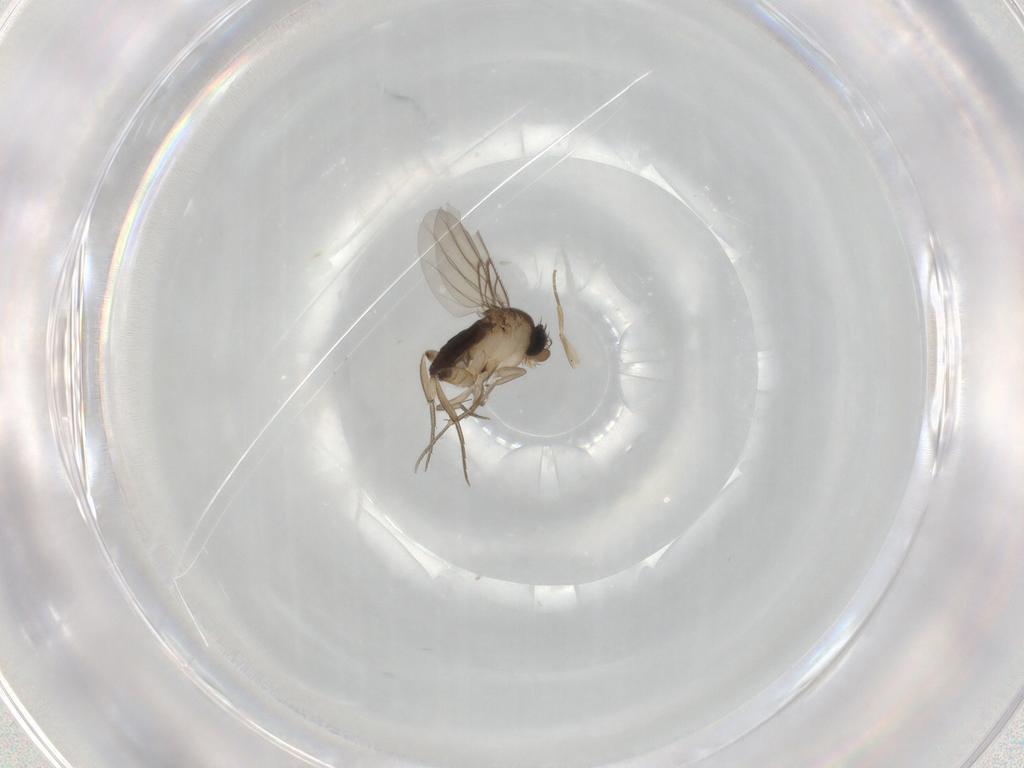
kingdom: Animalia
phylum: Arthropoda
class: Insecta
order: Diptera
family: Phoridae
